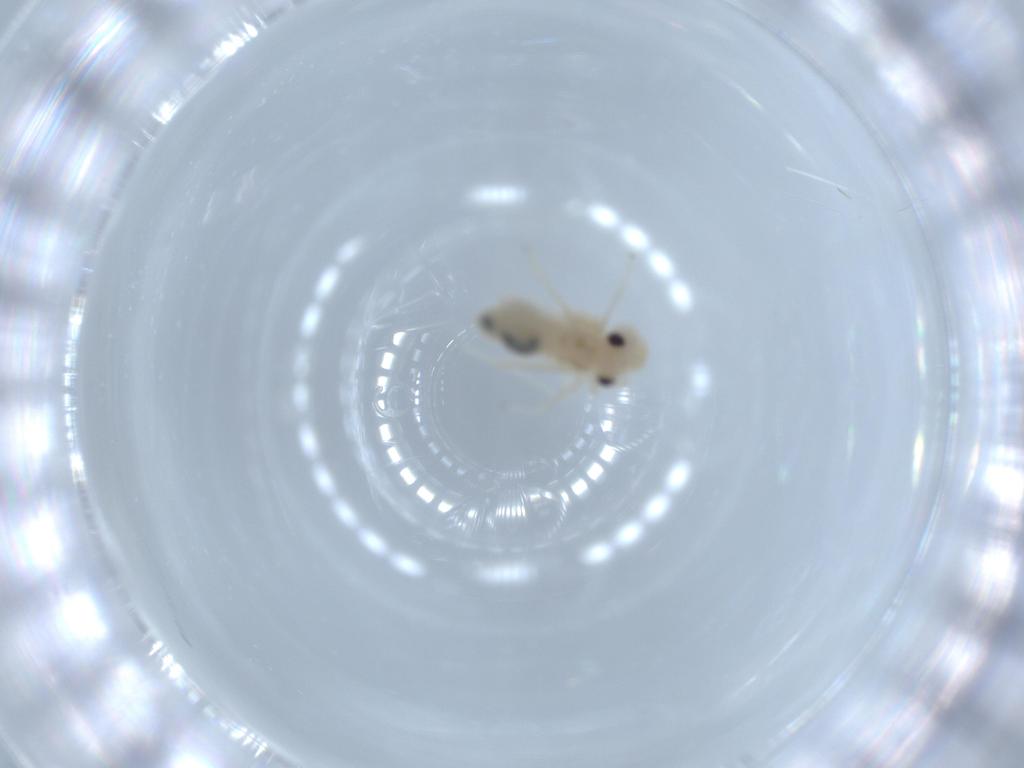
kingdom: Animalia
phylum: Arthropoda
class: Insecta
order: Psocodea
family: Caeciliusidae
